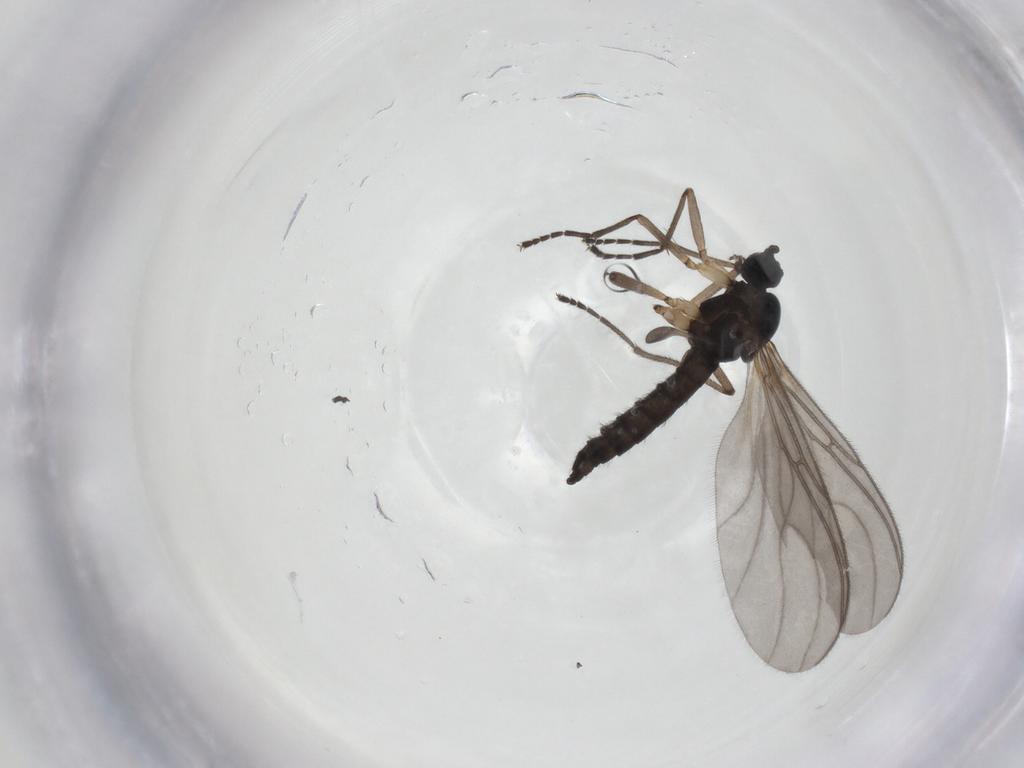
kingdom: Animalia
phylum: Arthropoda
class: Insecta
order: Diptera
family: Sciaridae
